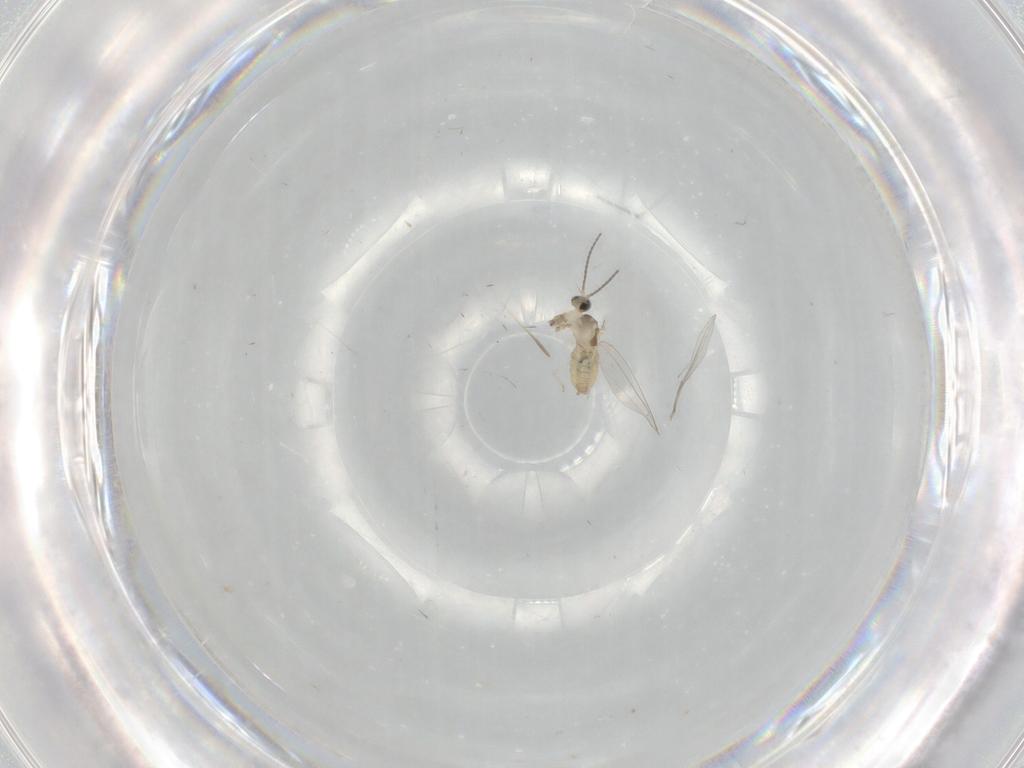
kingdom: Animalia
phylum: Arthropoda
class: Insecta
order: Diptera
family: Cecidomyiidae
